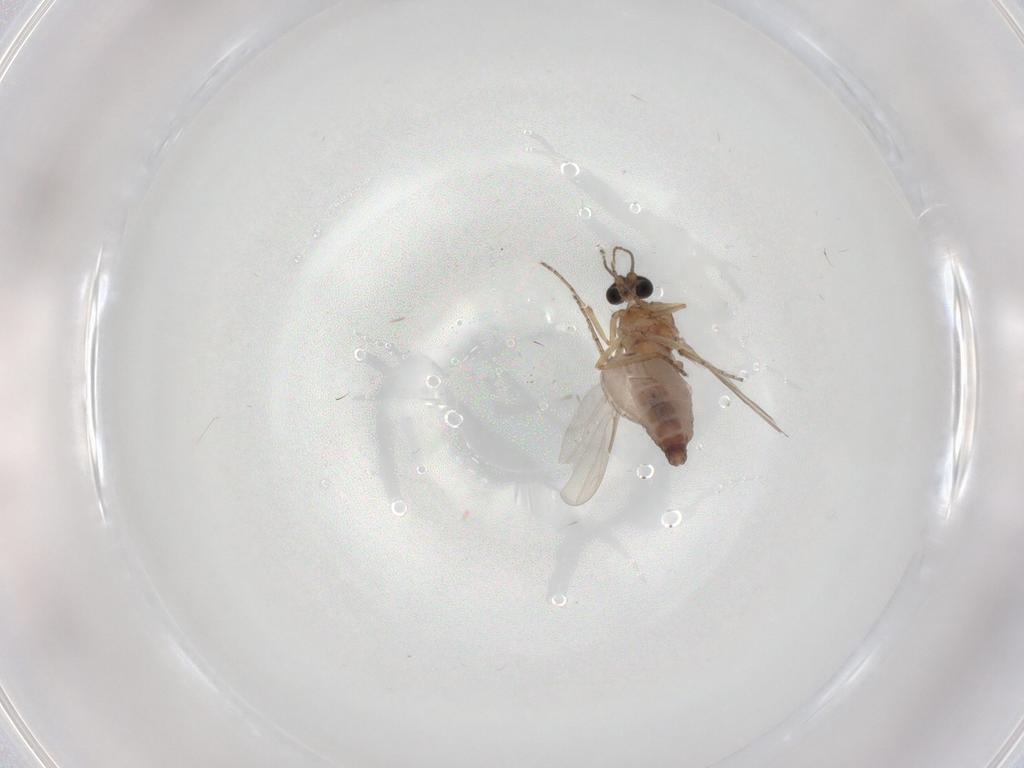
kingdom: Animalia
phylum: Arthropoda
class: Insecta
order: Diptera
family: Ceratopogonidae
